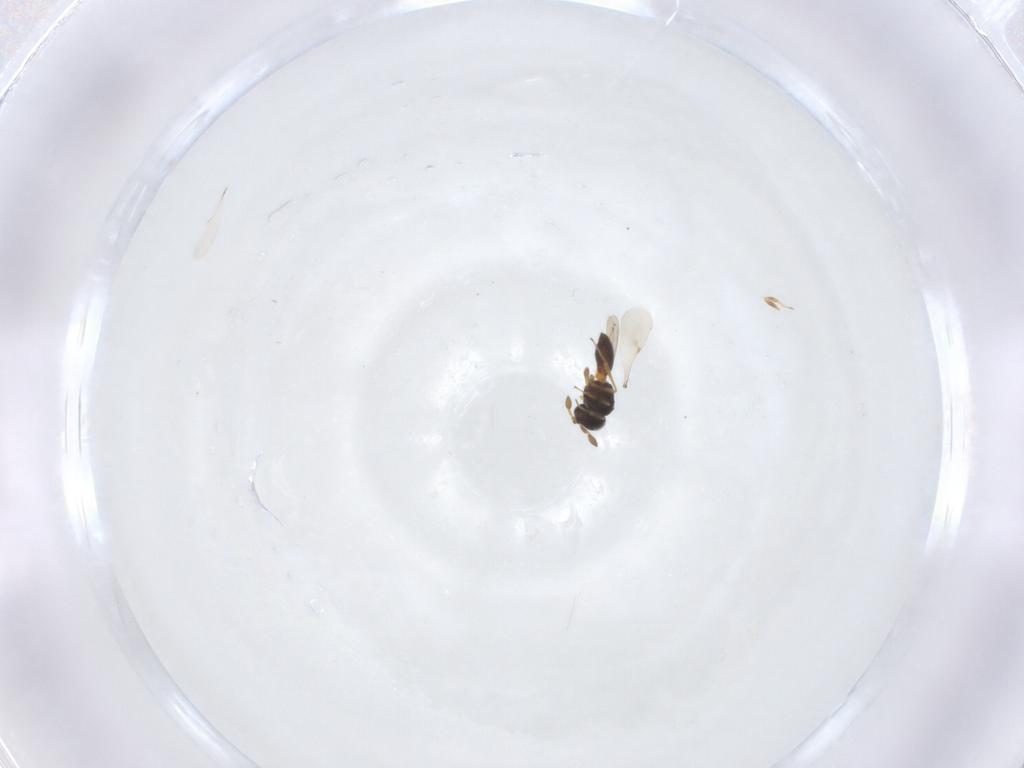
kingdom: Animalia
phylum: Arthropoda
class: Insecta
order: Hymenoptera
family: Scelionidae
